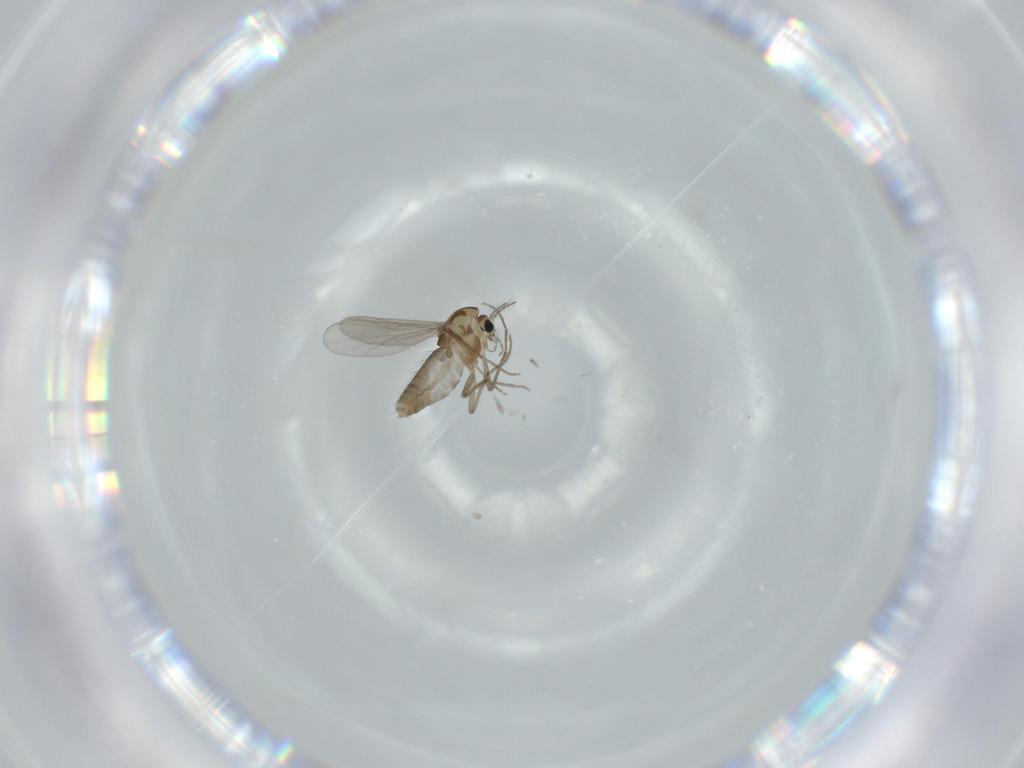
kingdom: Animalia
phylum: Arthropoda
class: Insecta
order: Diptera
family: Chironomidae
